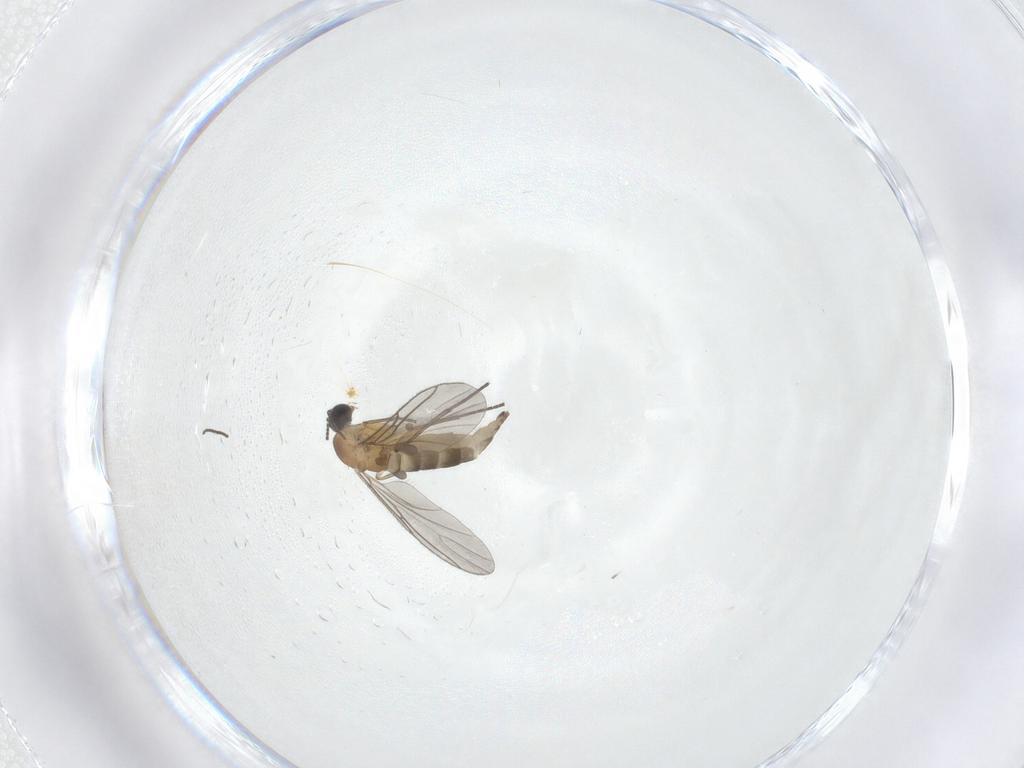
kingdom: Animalia
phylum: Arthropoda
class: Insecta
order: Diptera
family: Sciaridae
